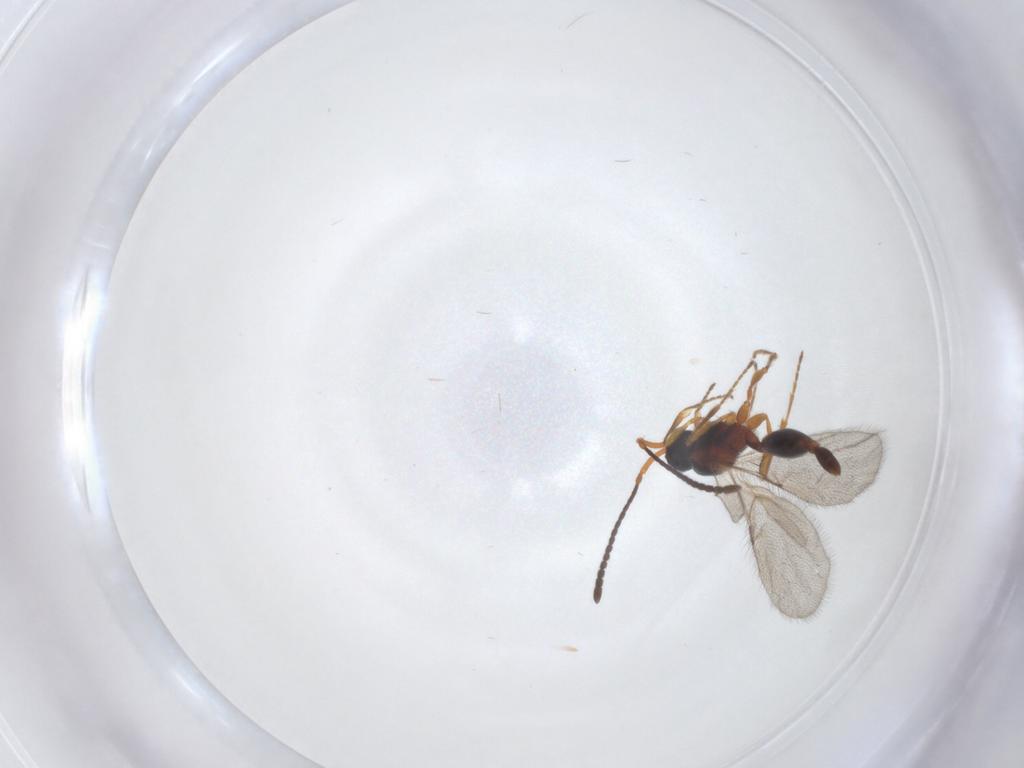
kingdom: Animalia
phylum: Arthropoda
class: Insecta
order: Hymenoptera
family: Diapriidae
